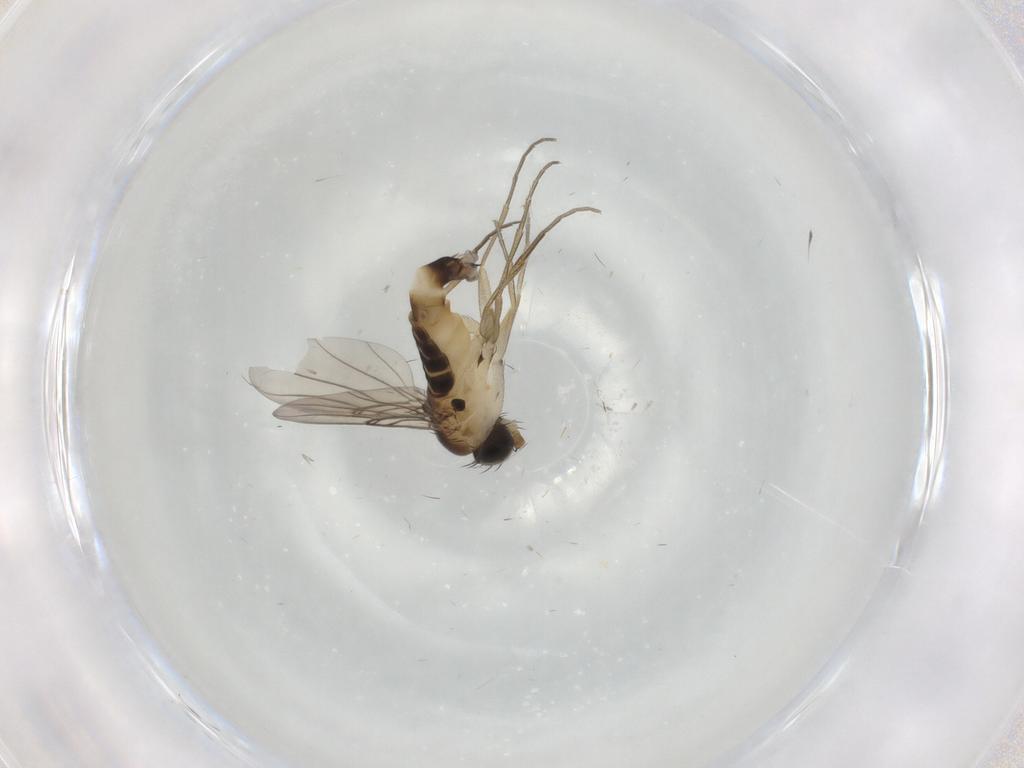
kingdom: Animalia
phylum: Arthropoda
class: Insecta
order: Diptera
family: Phoridae
